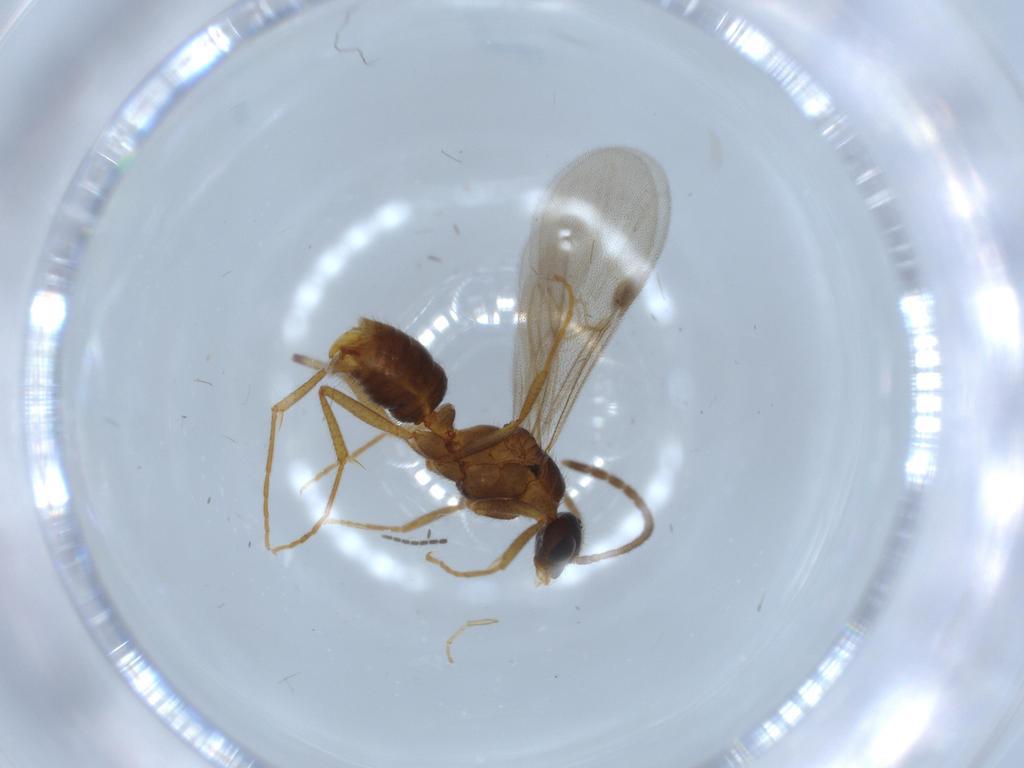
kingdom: Animalia
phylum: Arthropoda
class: Insecta
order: Hymenoptera
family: Formicidae
